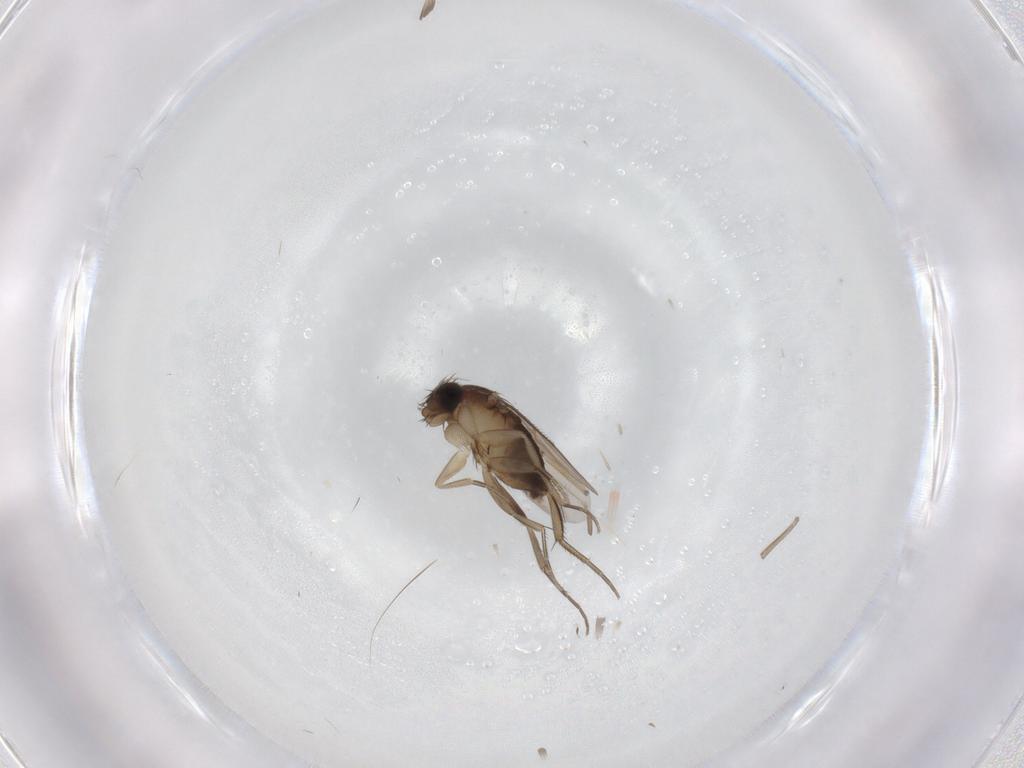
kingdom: Animalia
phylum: Arthropoda
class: Insecta
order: Diptera
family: Phoridae
